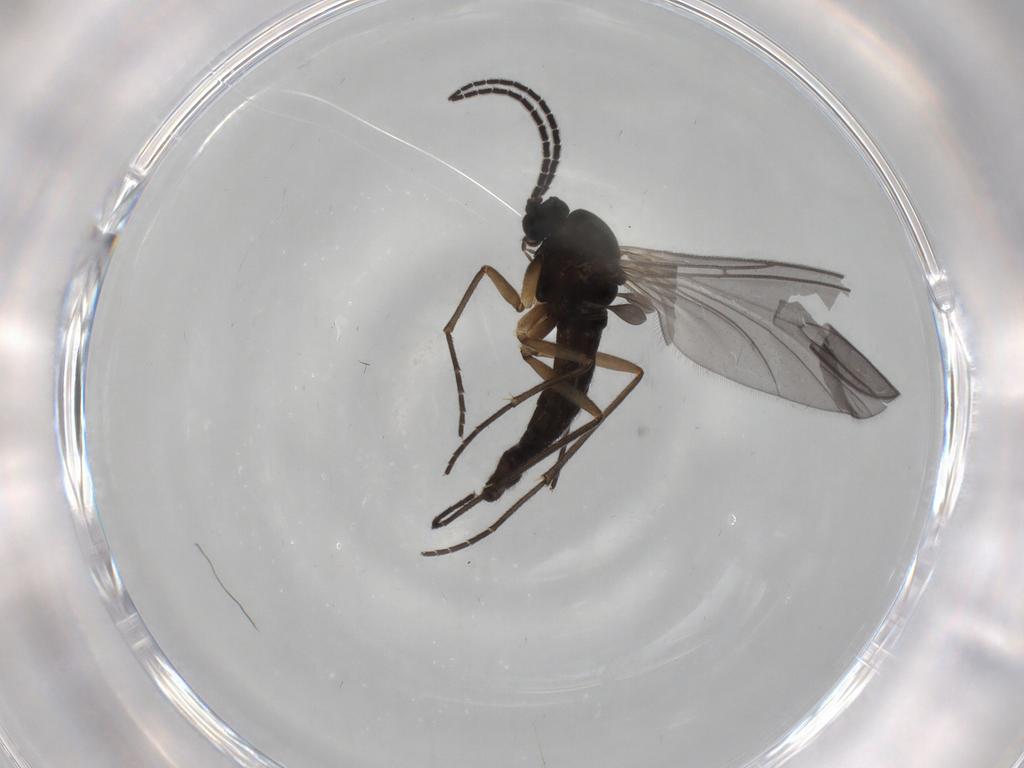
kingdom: Animalia
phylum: Arthropoda
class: Insecta
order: Diptera
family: Sciaridae
